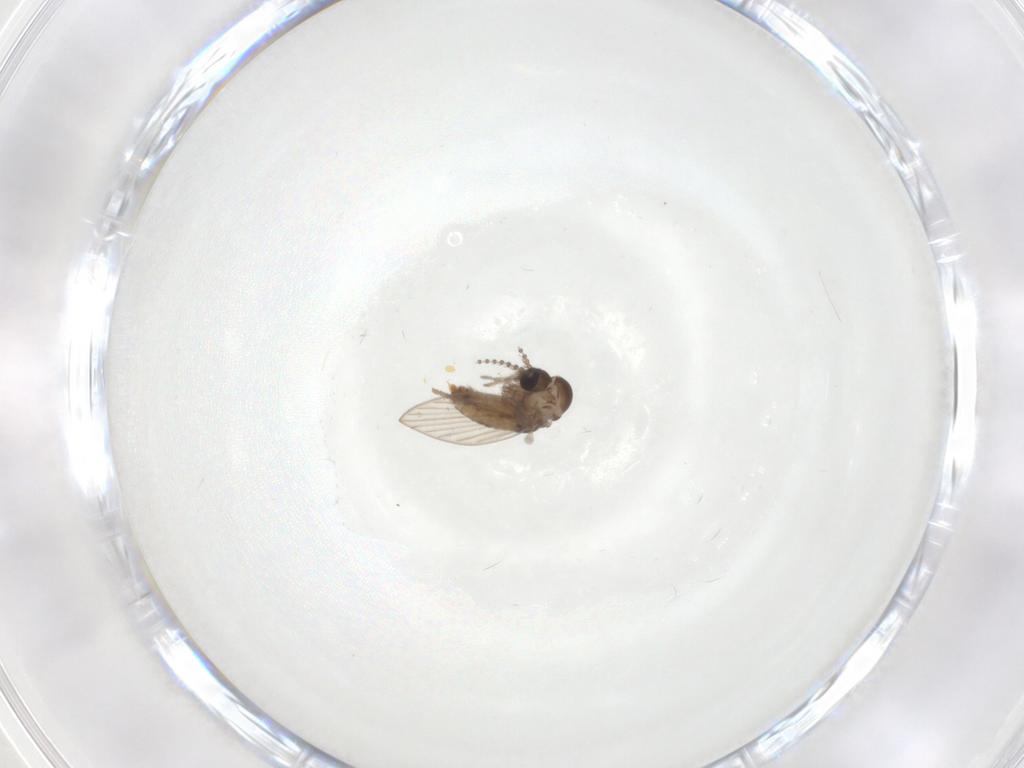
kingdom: Animalia
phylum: Arthropoda
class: Insecta
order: Diptera
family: Psychodidae
